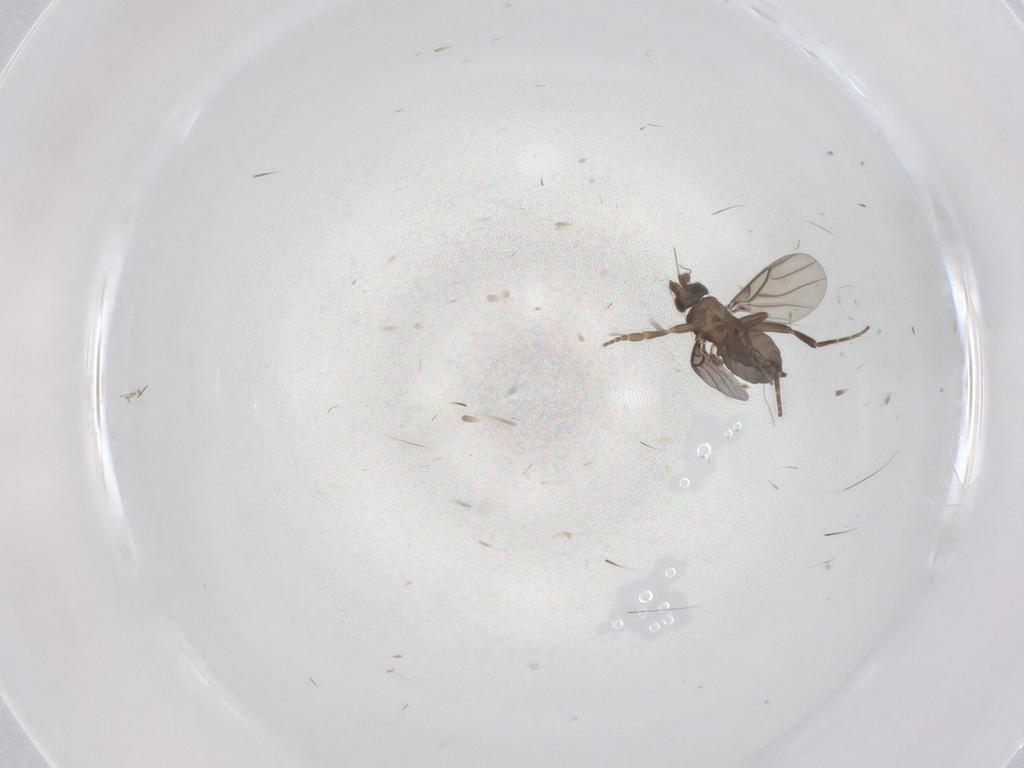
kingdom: Animalia
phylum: Arthropoda
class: Insecta
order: Diptera
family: Phoridae
